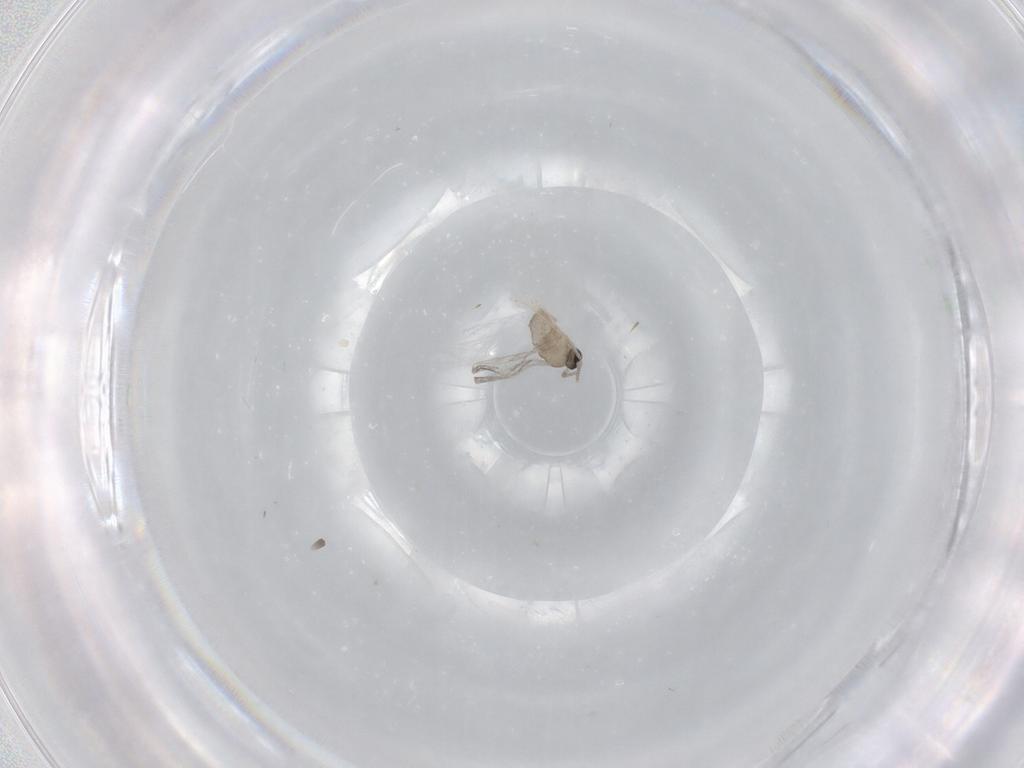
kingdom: Animalia
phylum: Arthropoda
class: Insecta
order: Diptera
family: Cecidomyiidae
